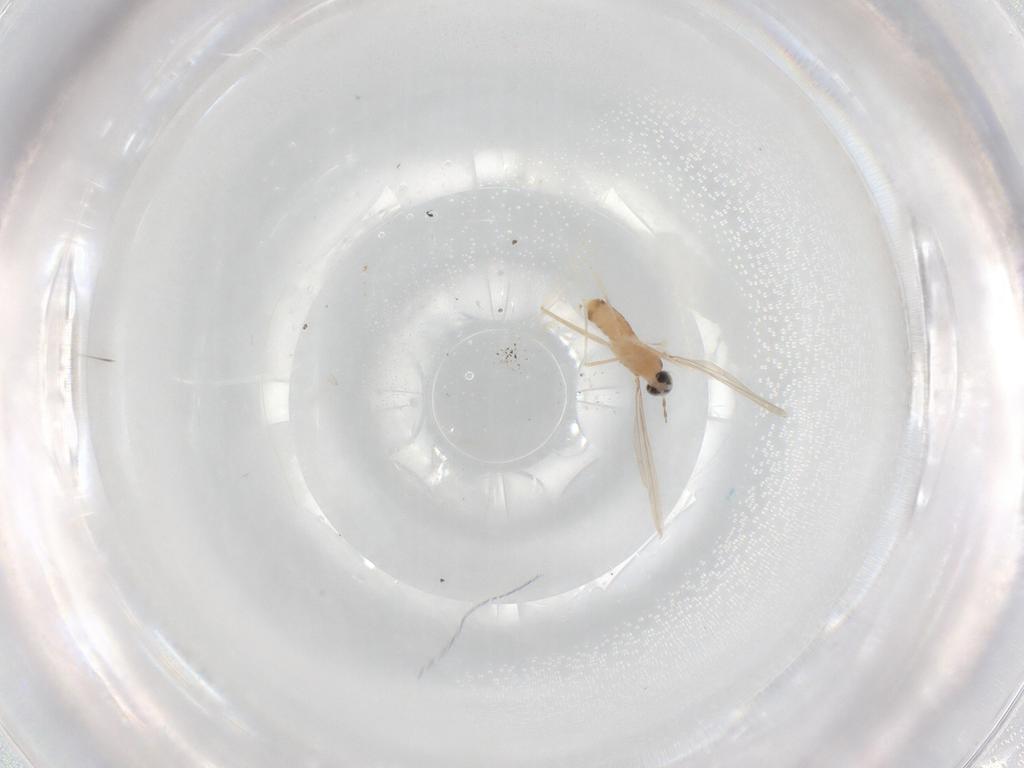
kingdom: Animalia
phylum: Arthropoda
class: Insecta
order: Diptera
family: Cecidomyiidae
